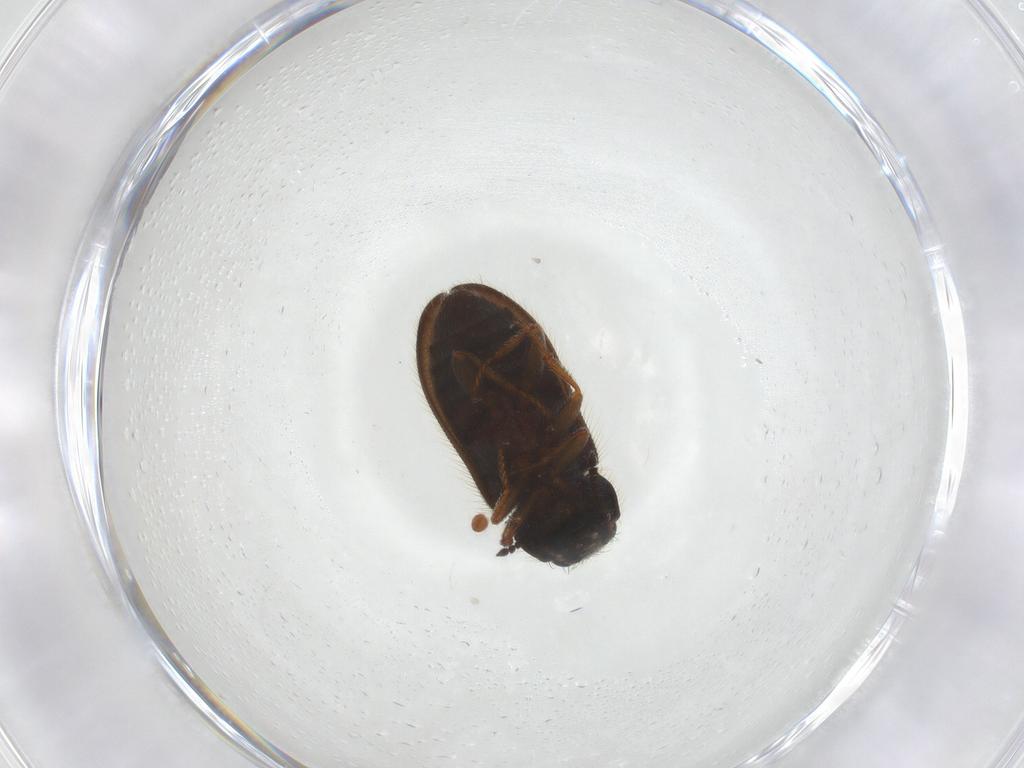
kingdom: Animalia
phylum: Arthropoda
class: Insecta
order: Coleoptera
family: Melyridae
